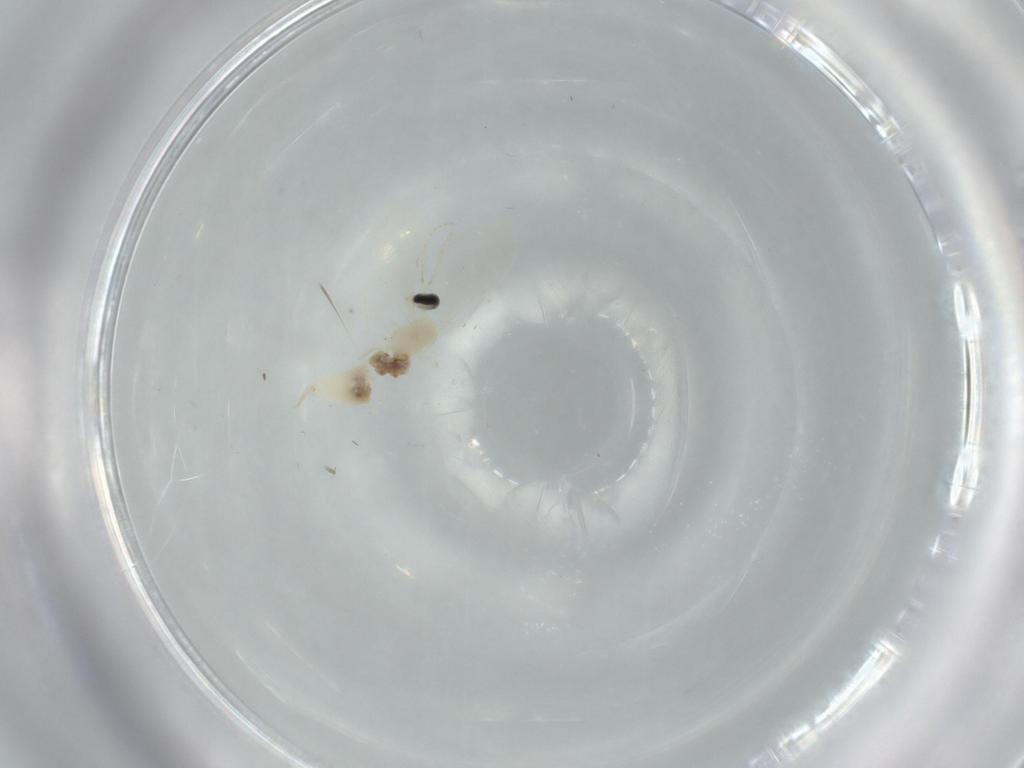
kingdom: Animalia
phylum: Arthropoda
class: Insecta
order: Diptera
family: Cecidomyiidae
